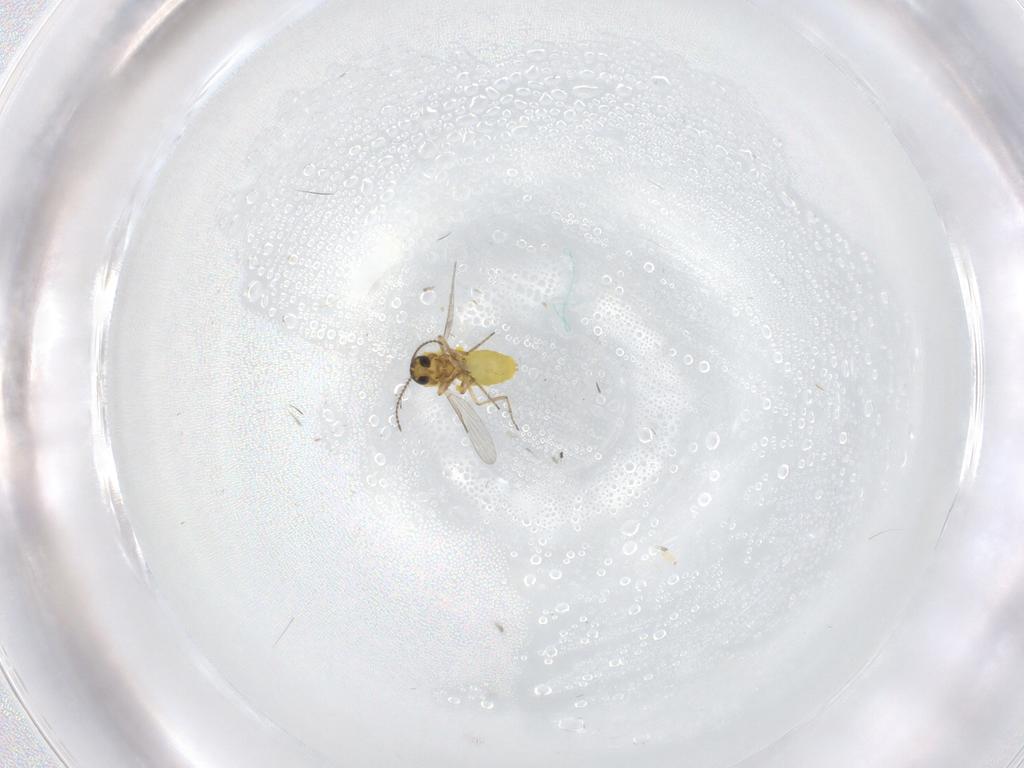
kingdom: Animalia
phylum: Arthropoda
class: Insecta
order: Diptera
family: Ceratopogonidae
